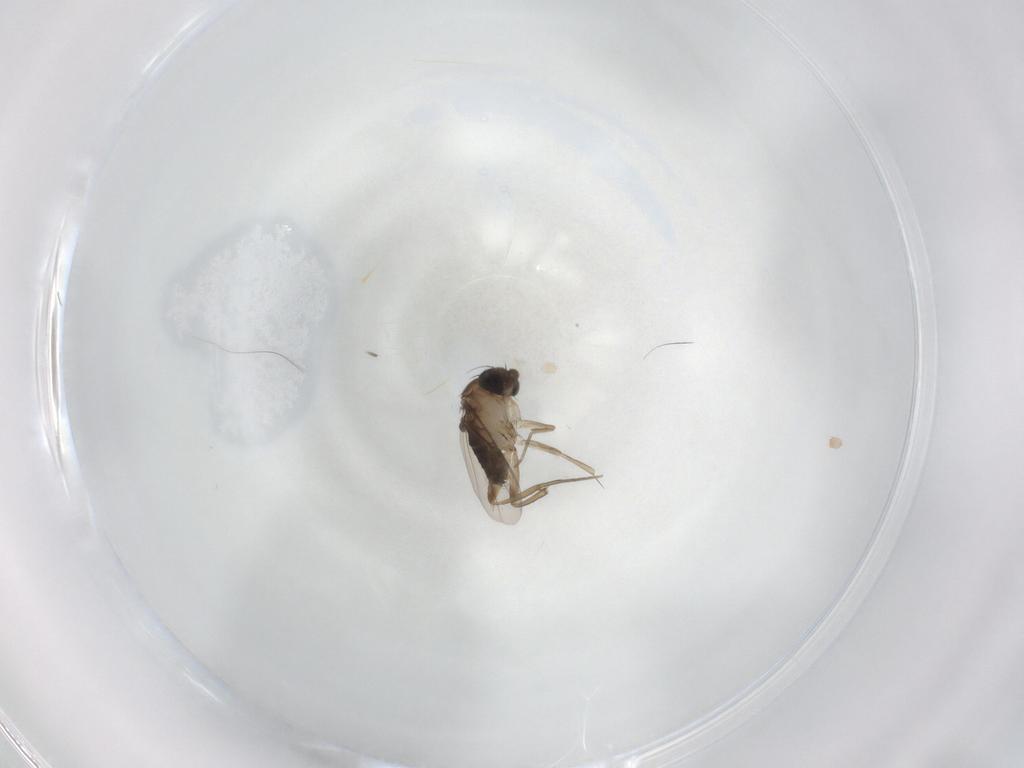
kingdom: Animalia
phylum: Arthropoda
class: Insecta
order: Diptera
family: Phoridae
